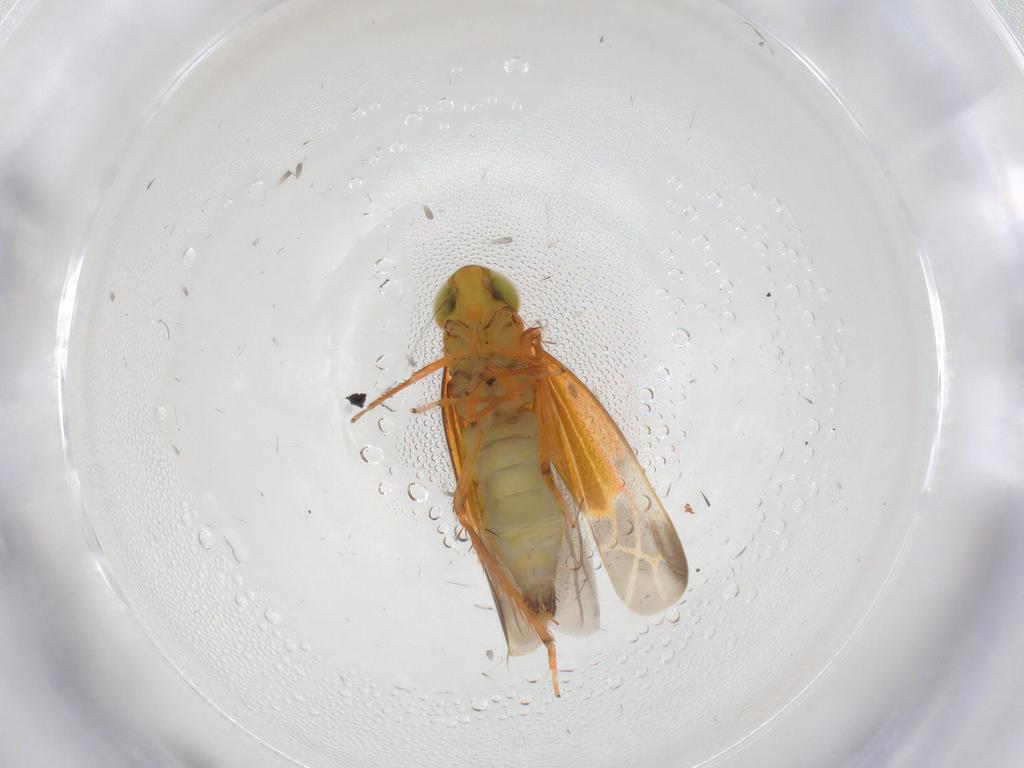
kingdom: Animalia
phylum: Arthropoda
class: Insecta
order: Hemiptera
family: Cicadellidae
